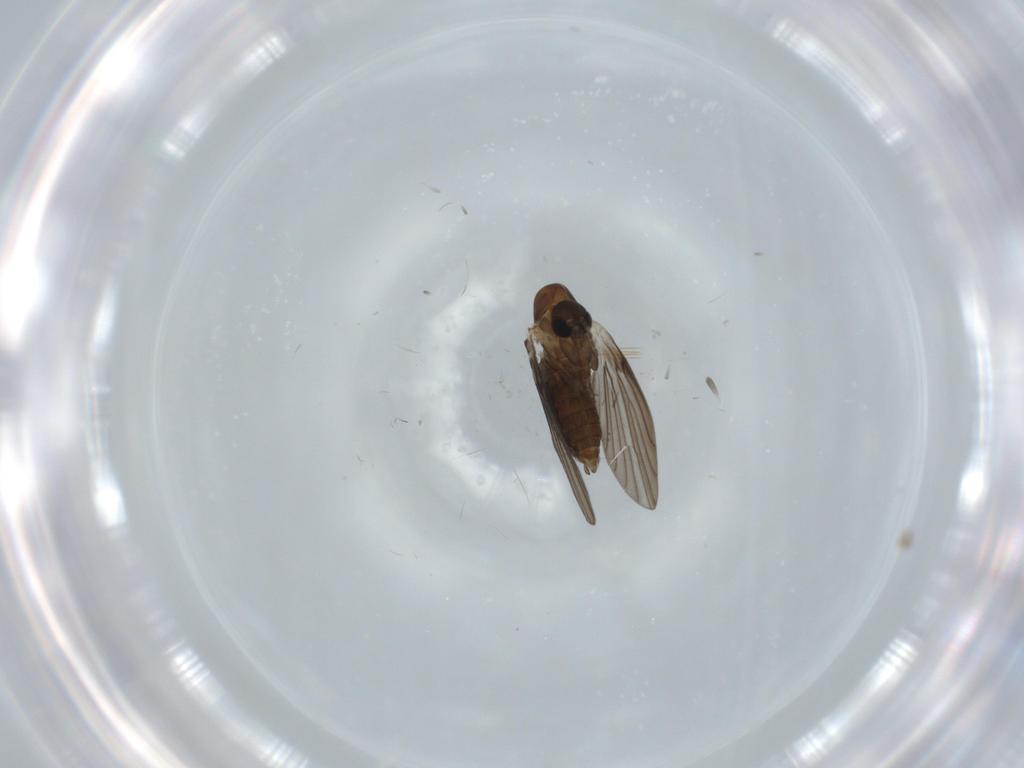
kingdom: Animalia
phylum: Arthropoda
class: Insecta
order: Diptera
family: Psychodidae
